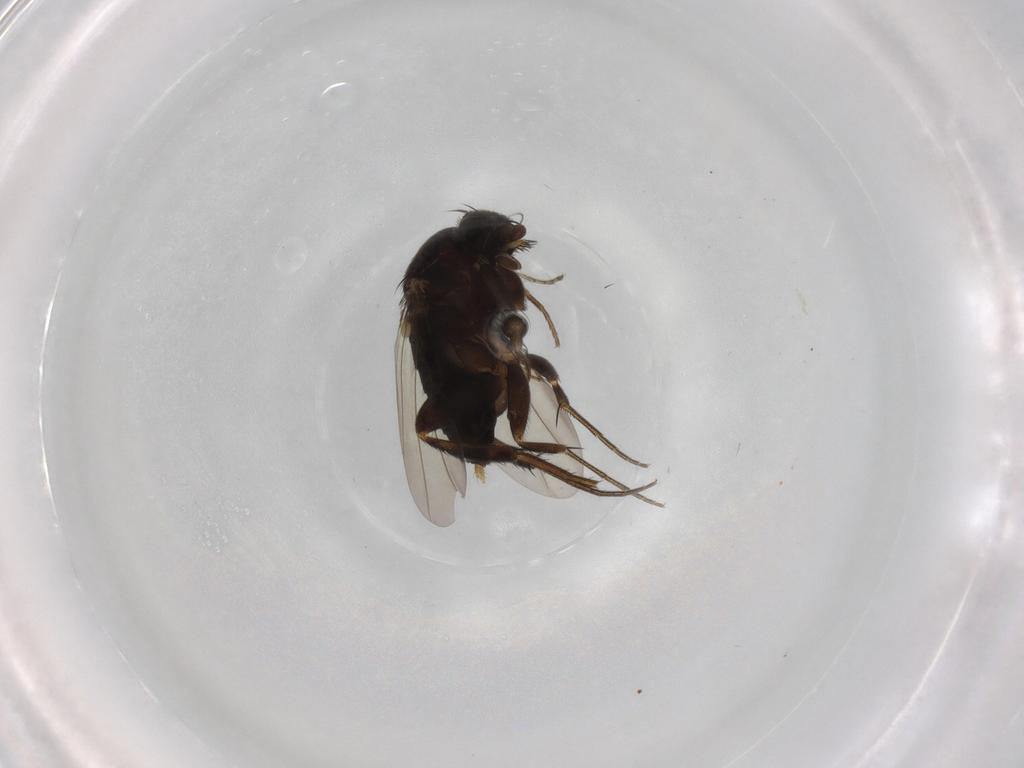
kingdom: Animalia
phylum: Arthropoda
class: Insecta
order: Diptera
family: Phoridae
